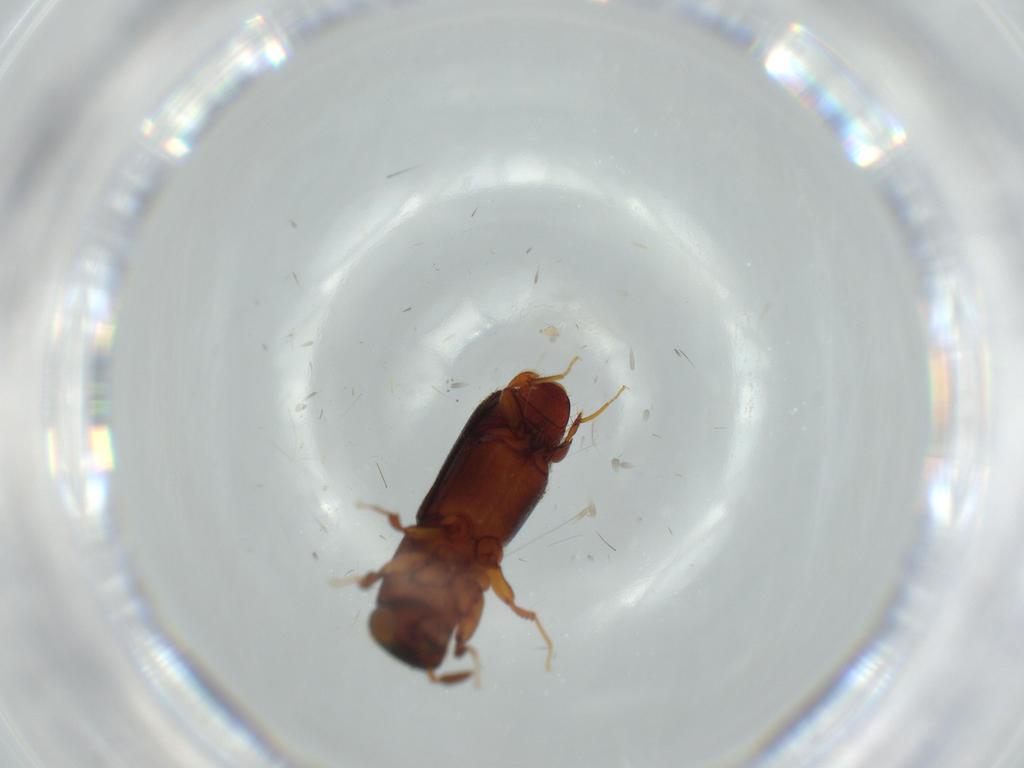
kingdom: Animalia
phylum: Arthropoda
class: Insecta
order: Coleoptera
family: Curculionidae
